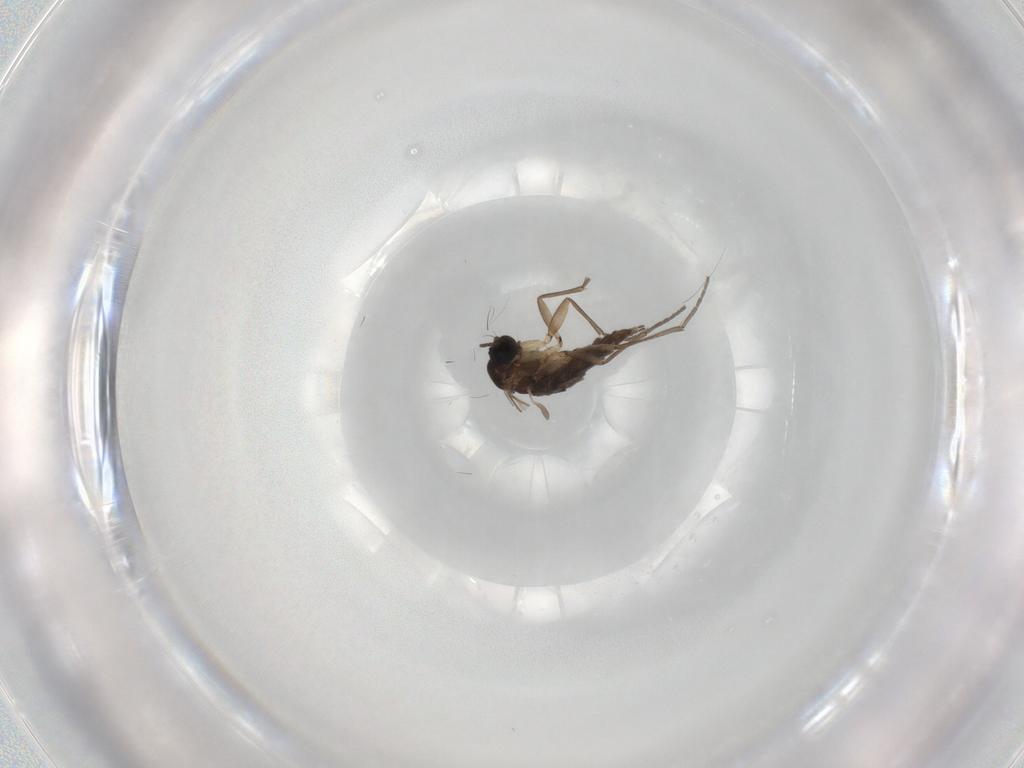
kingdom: Animalia
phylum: Arthropoda
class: Insecta
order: Diptera
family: Sciaridae
